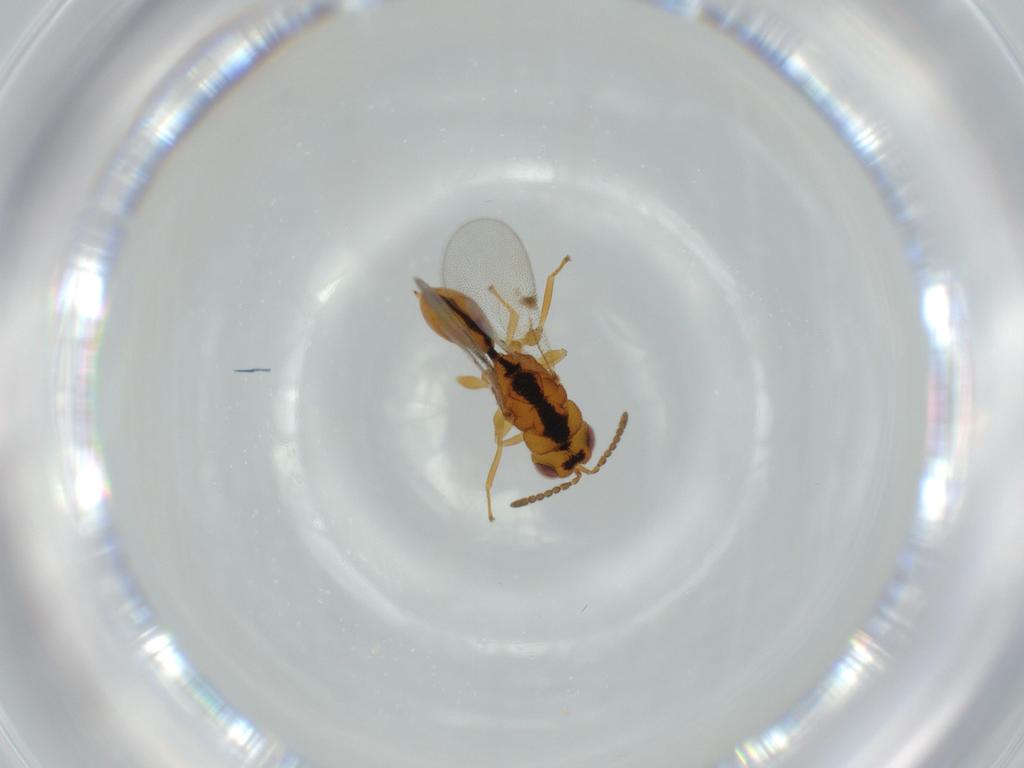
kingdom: Animalia
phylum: Arthropoda
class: Insecta
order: Hymenoptera
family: Eurytomidae
